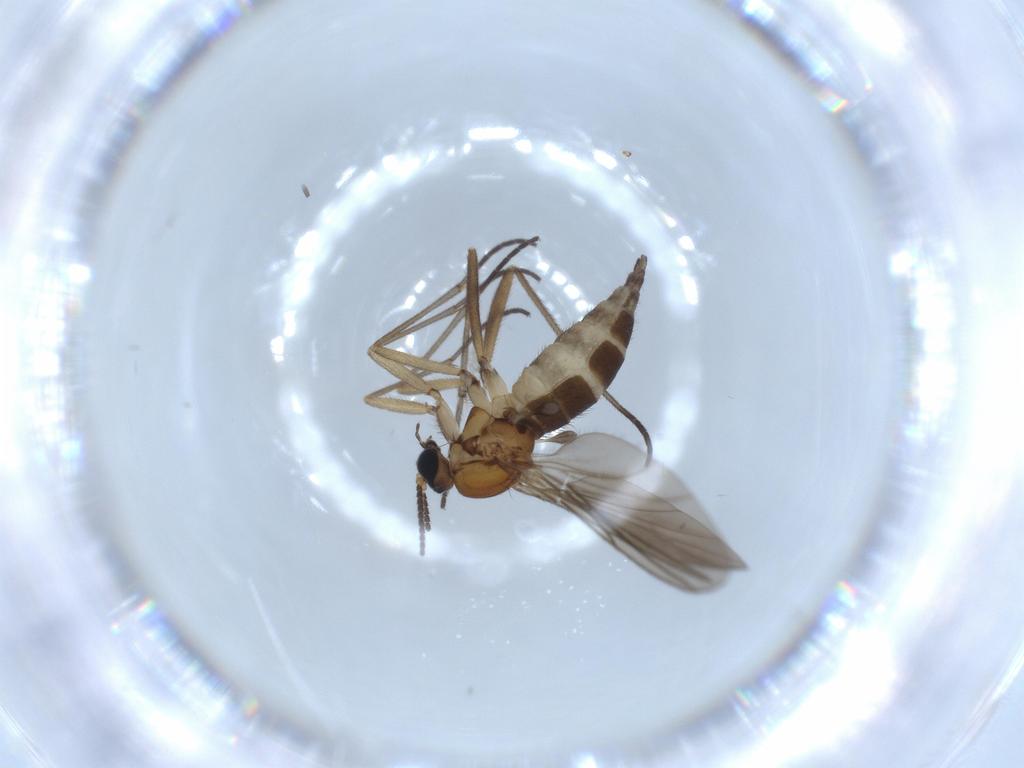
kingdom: Animalia
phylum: Arthropoda
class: Insecta
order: Diptera
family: Sciaridae
